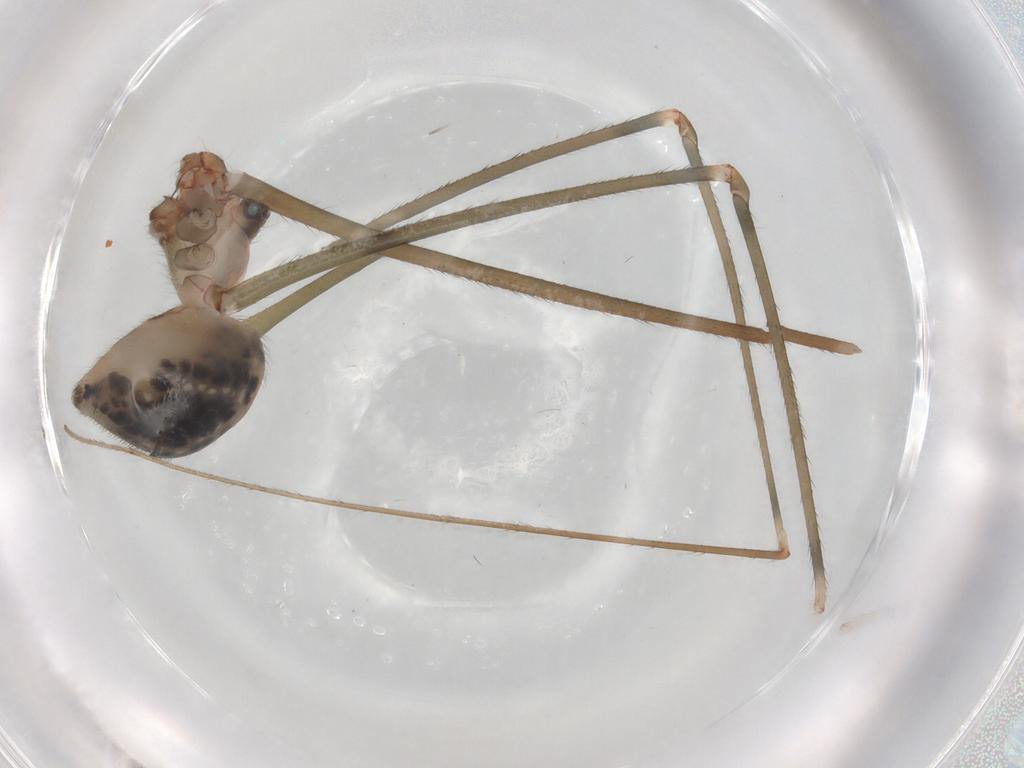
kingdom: Animalia
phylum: Arthropoda
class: Arachnida
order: Araneae
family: Pholcidae
